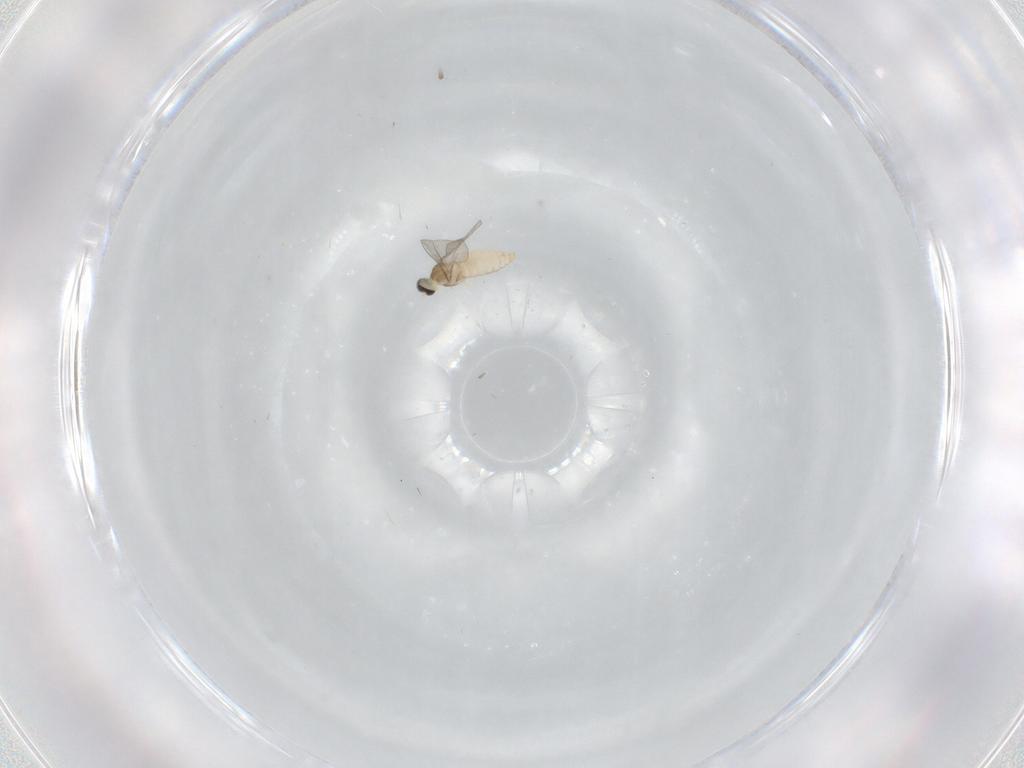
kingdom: Animalia
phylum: Arthropoda
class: Insecta
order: Diptera
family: Cecidomyiidae
